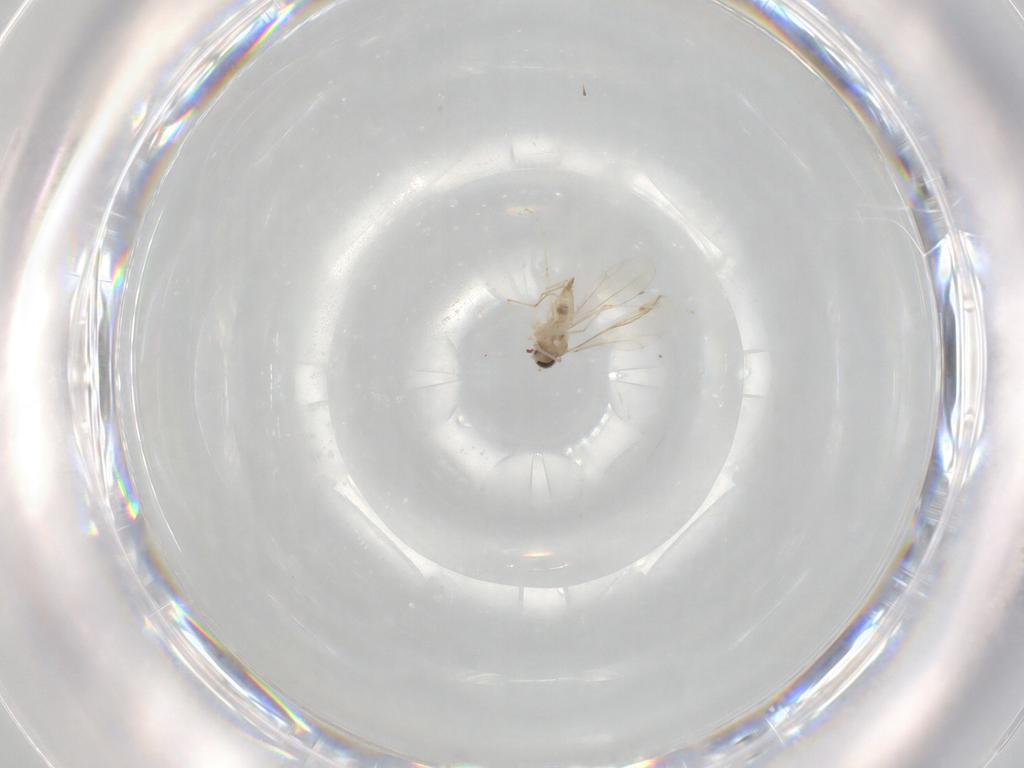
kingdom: Animalia
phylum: Arthropoda
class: Insecta
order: Diptera
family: Cecidomyiidae
